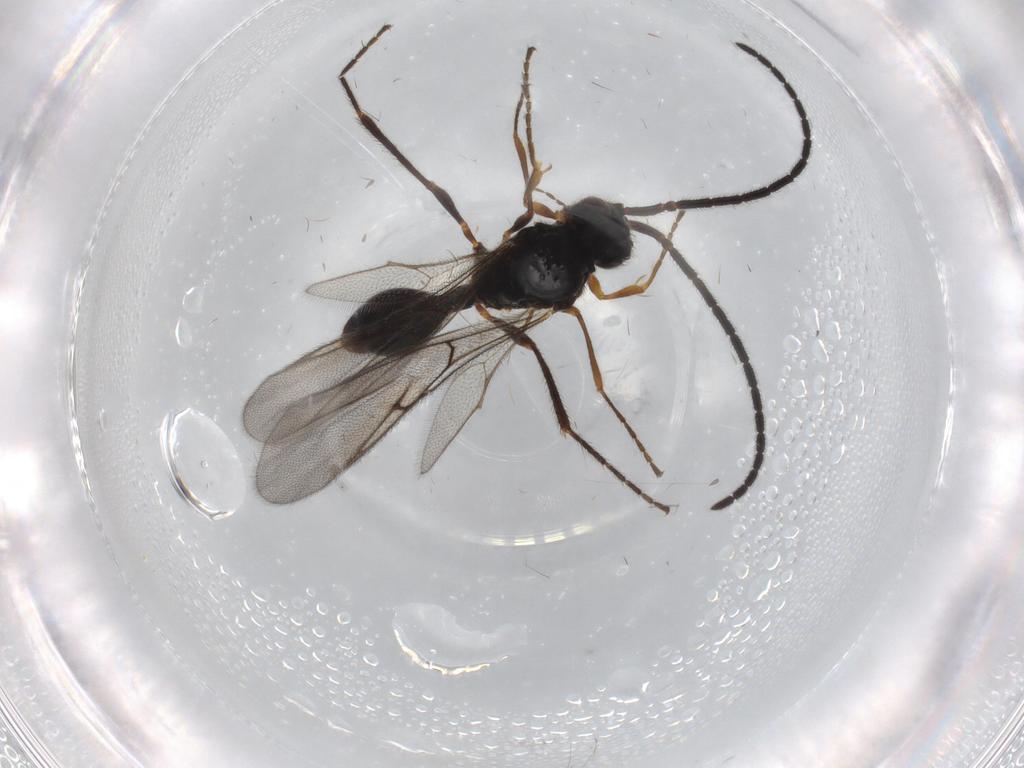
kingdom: Animalia
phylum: Arthropoda
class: Insecta
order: Hymenoptera
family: Diapriidae
